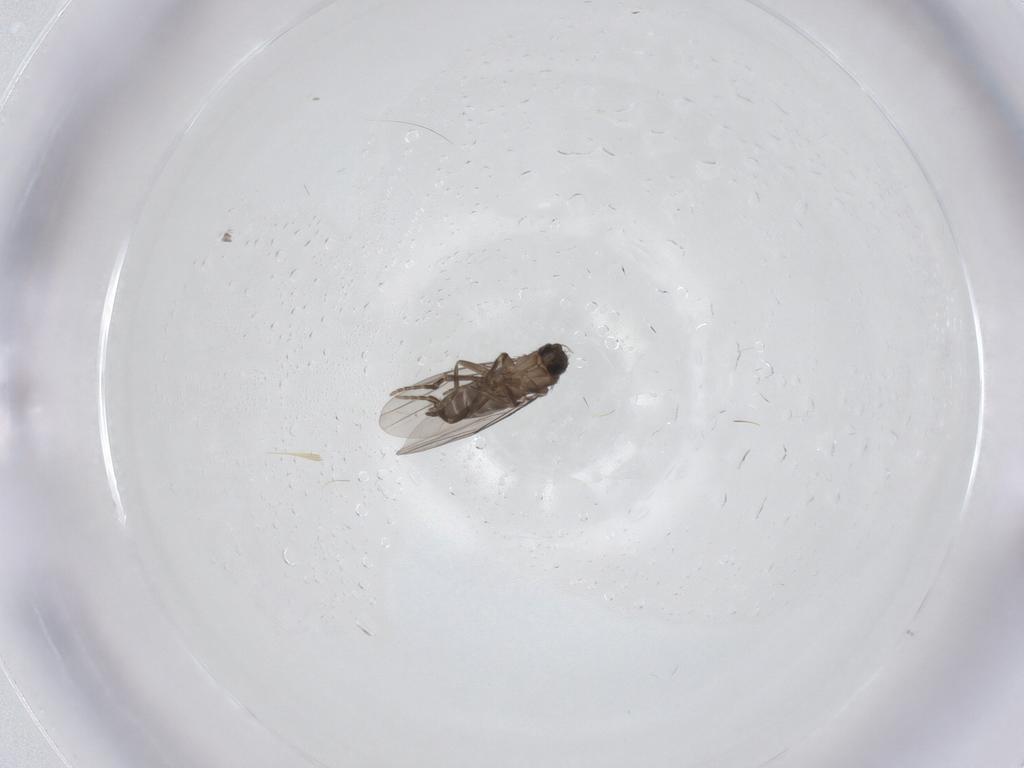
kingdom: Animalia
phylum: Arthropoda
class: Insecta
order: Diptera
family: Phoridae
